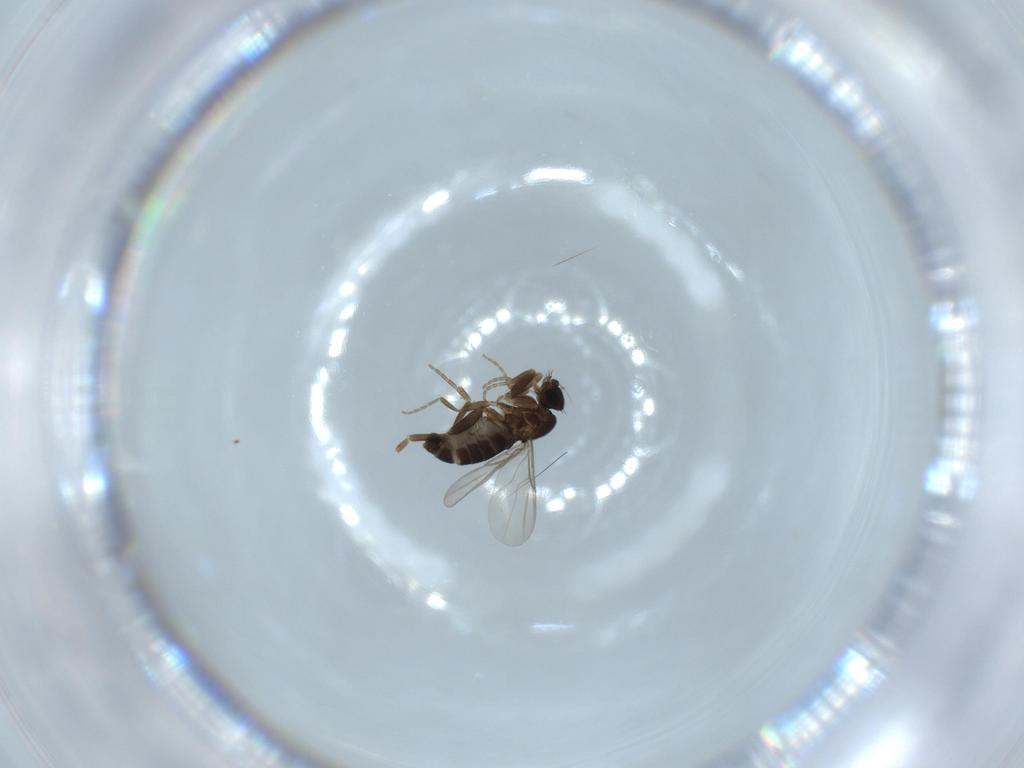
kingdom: Animalia
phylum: Arthropoda
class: Insecta
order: Diptera
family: Phoridae
